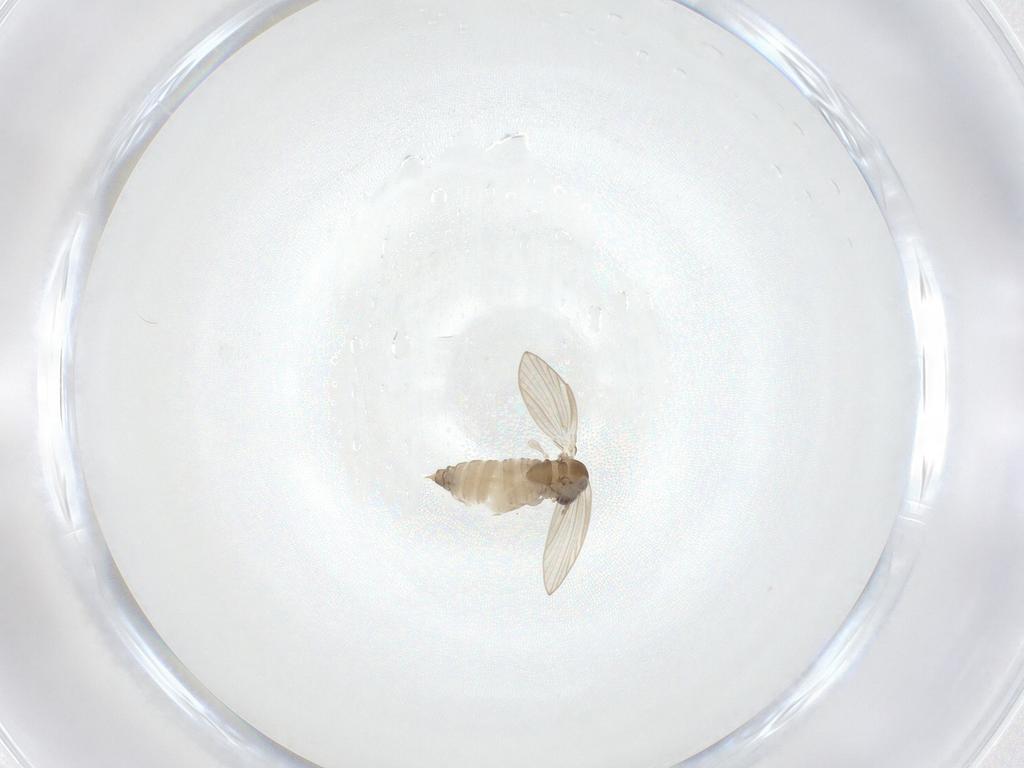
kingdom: Animalia
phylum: Arthropoda
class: Insecta
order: Diptera
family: Psychodidae
